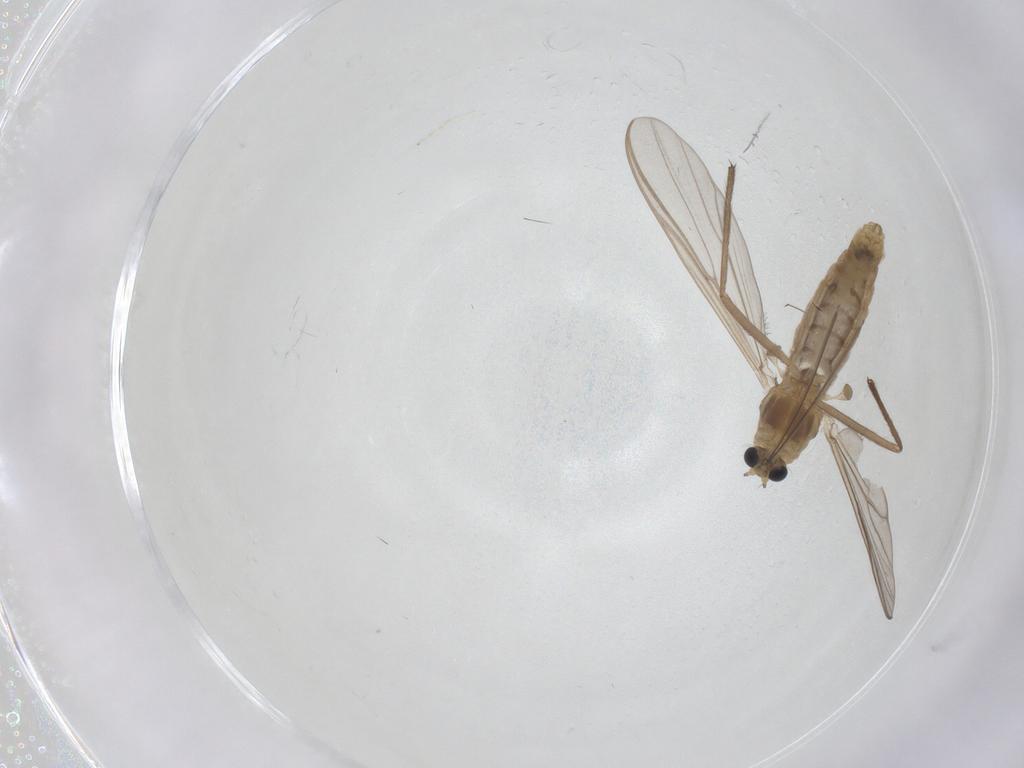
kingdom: Animalia
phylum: Arthropoda
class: Insecta
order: Diptera
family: Chironomidae
